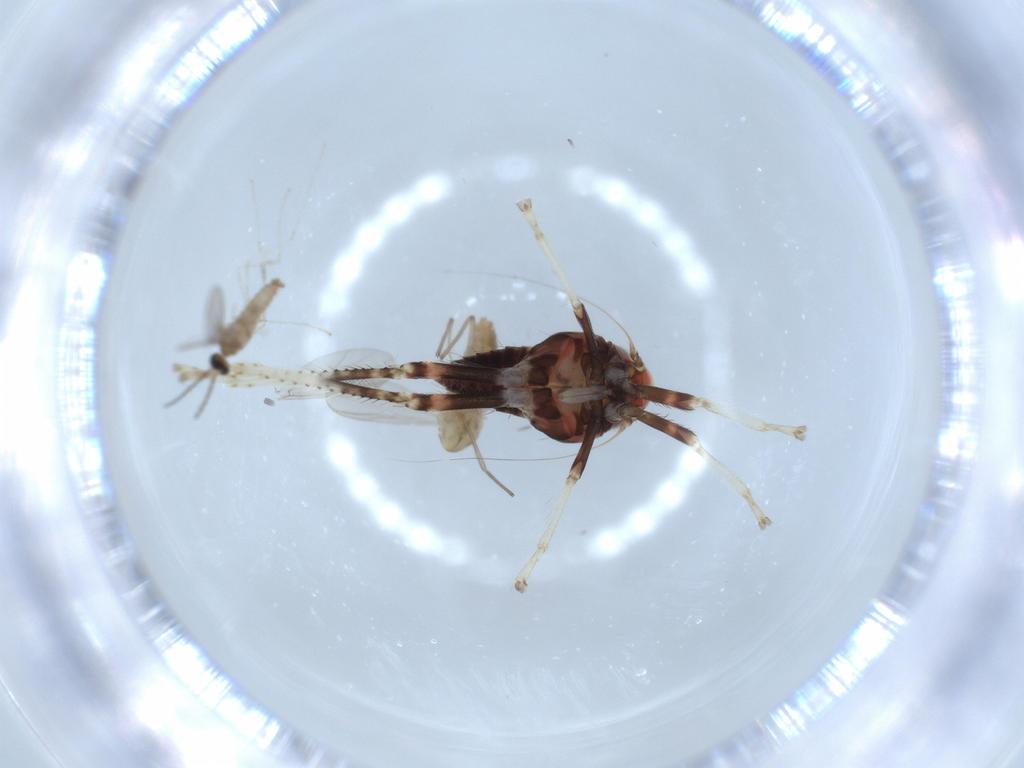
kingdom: Animalia
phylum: Arthropoda
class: Insecta
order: Hemiptera
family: Cicadellidae
